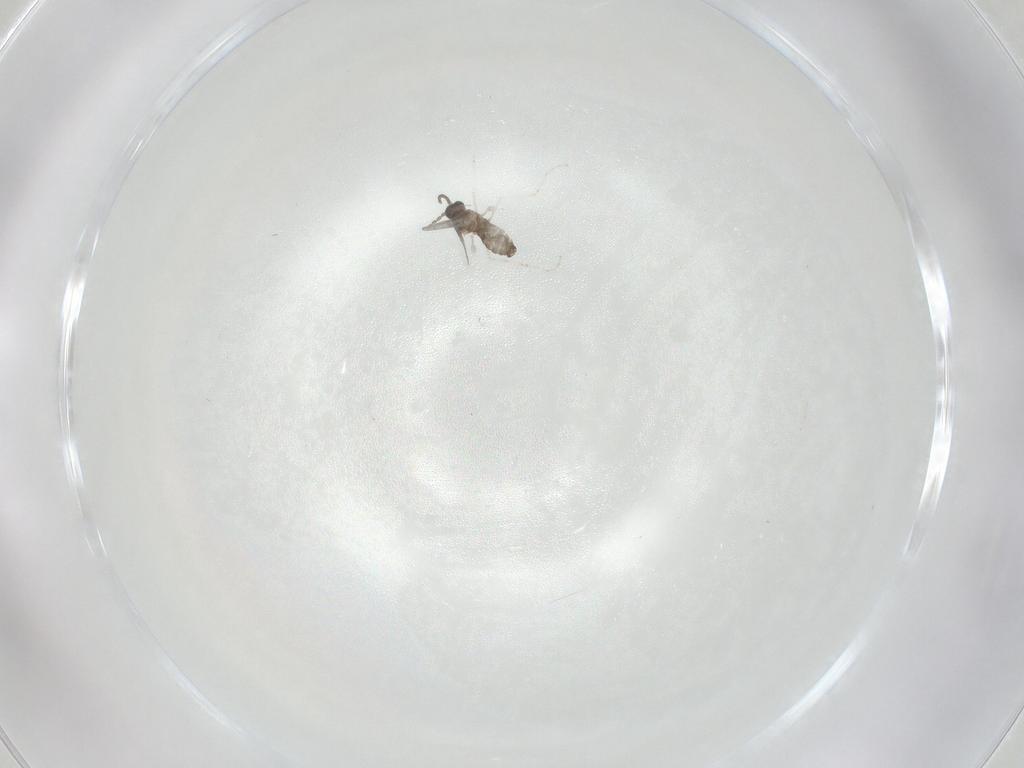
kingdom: Animalia
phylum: Arthropoda
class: Insecta
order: Diptera
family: Cecidomyiidae
